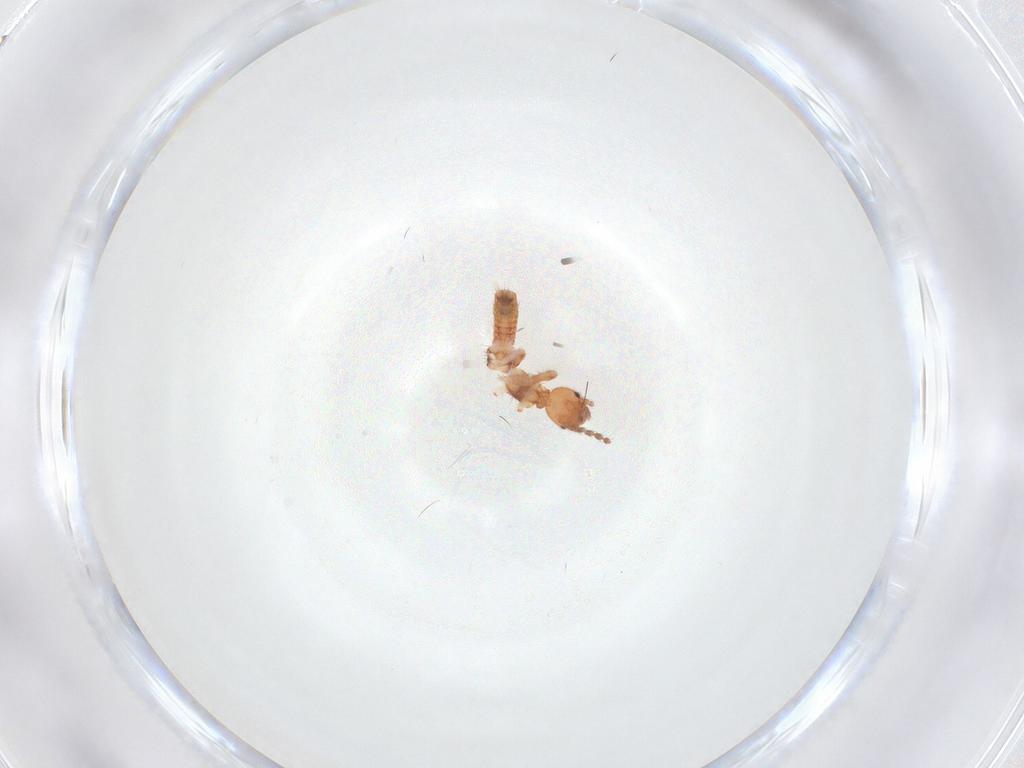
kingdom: Animalia
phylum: Arthropoda
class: Insecta
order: Embioptera
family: Anisembiidae
